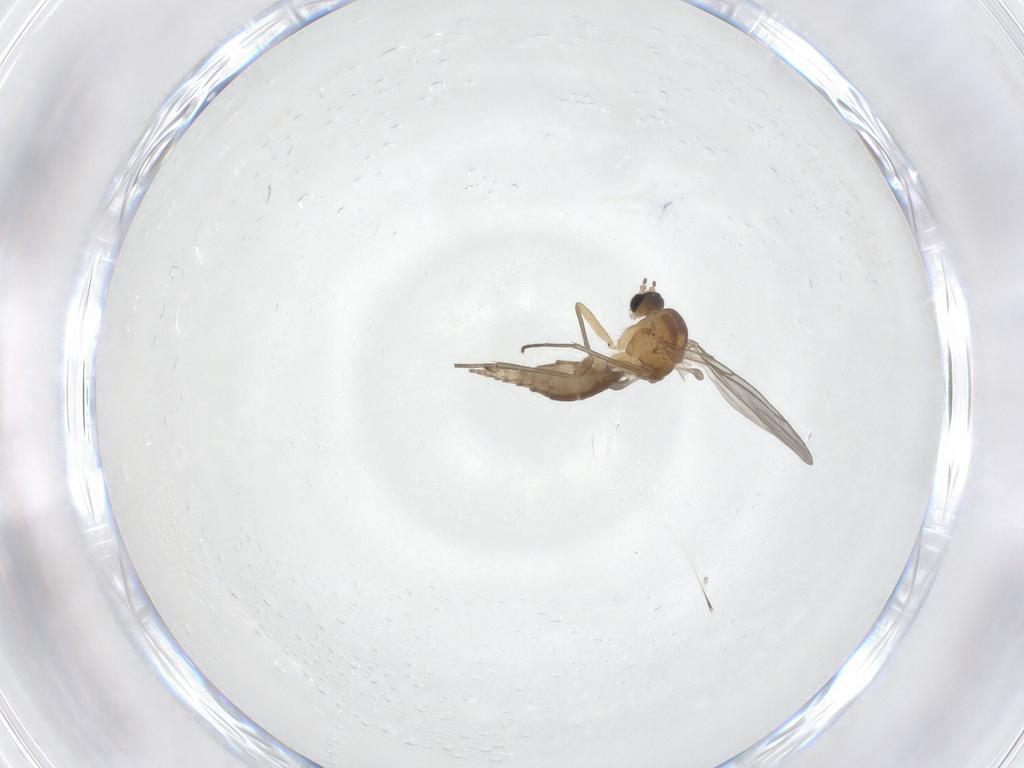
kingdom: Animalia
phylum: Arthropoda
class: Insecta
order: Diptera
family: Sciaridae
